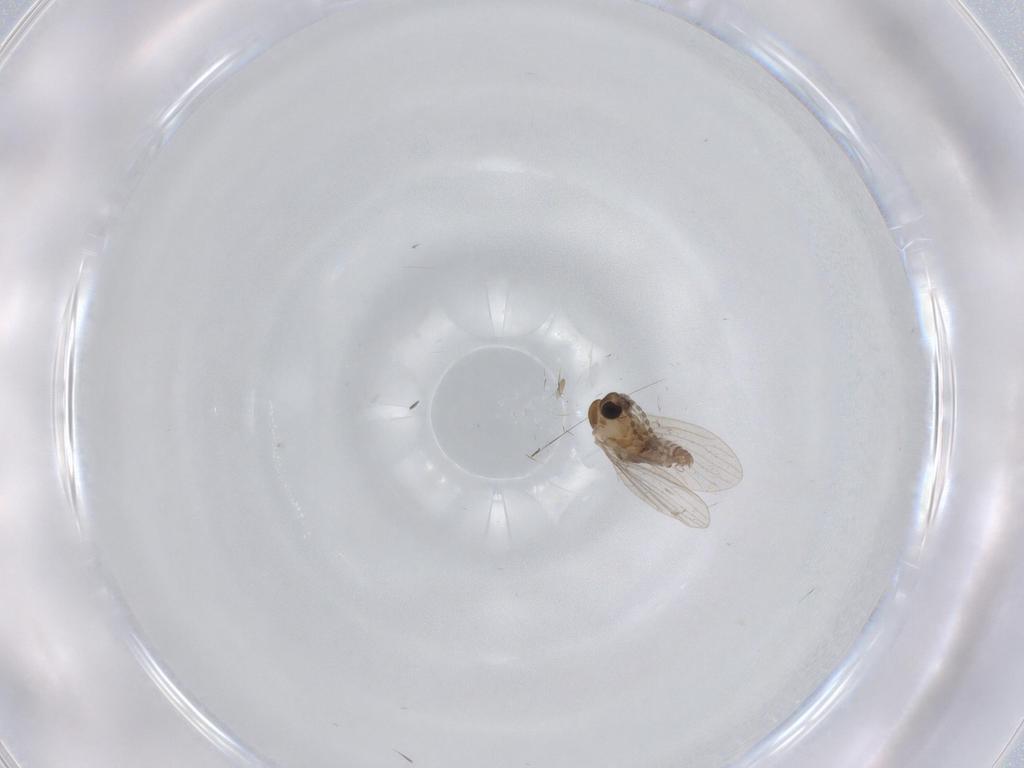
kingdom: Animalia
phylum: Arthropoda
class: Insecta
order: Diptera
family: Psychodidae
